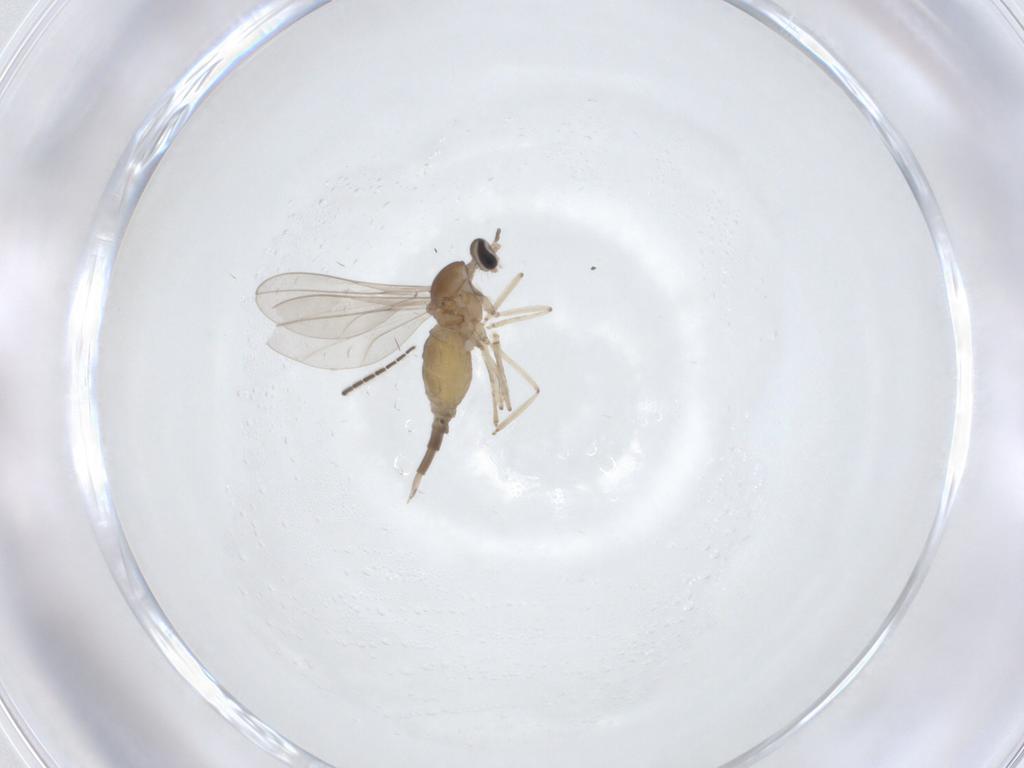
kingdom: Animalia
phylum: Arthropoda
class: Insecta
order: Diptera
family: Cecidomyiidae
